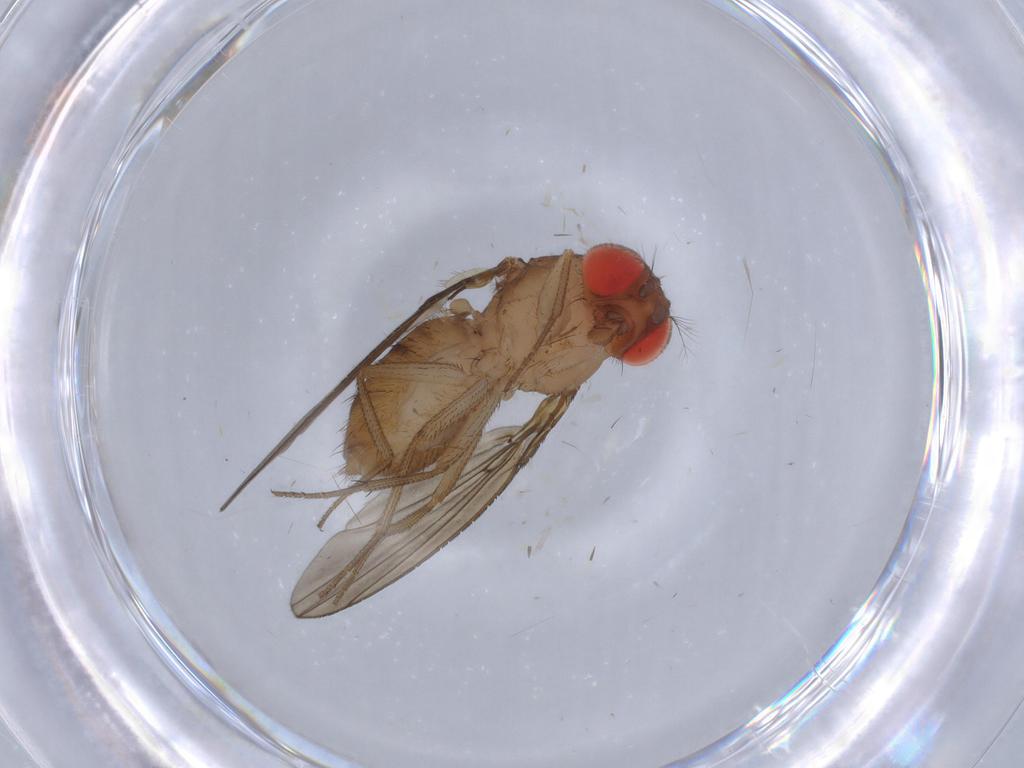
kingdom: Animalia
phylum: Arthropoda
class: Insecta
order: Diptera
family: Drosophilidae
